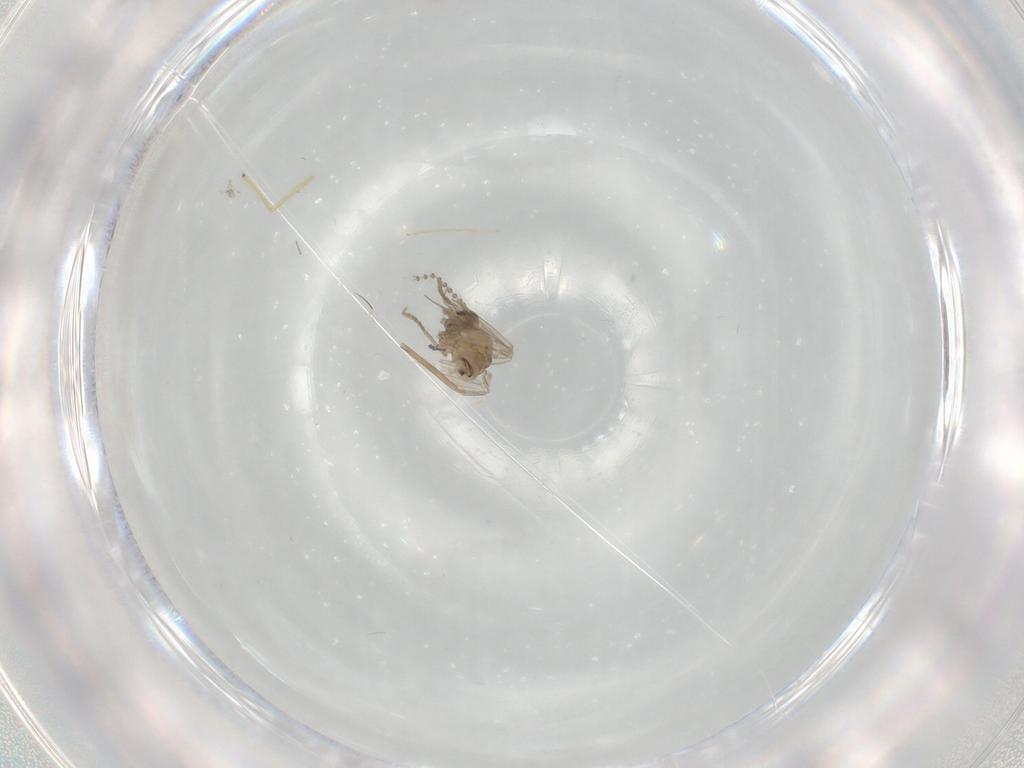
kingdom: Animalia
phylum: Arthropoda
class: Insecta
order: Diptera
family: Psychodidae
